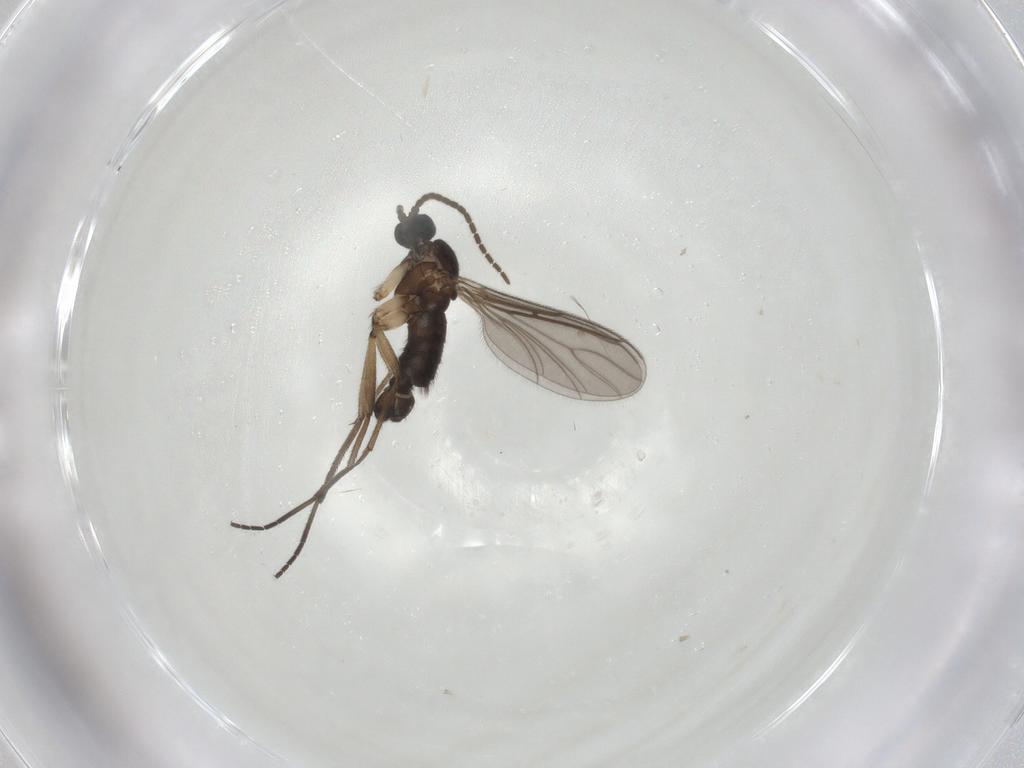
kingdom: Animalia
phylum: Arthropoda
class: Insecta
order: Diptera
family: Sciaridae
